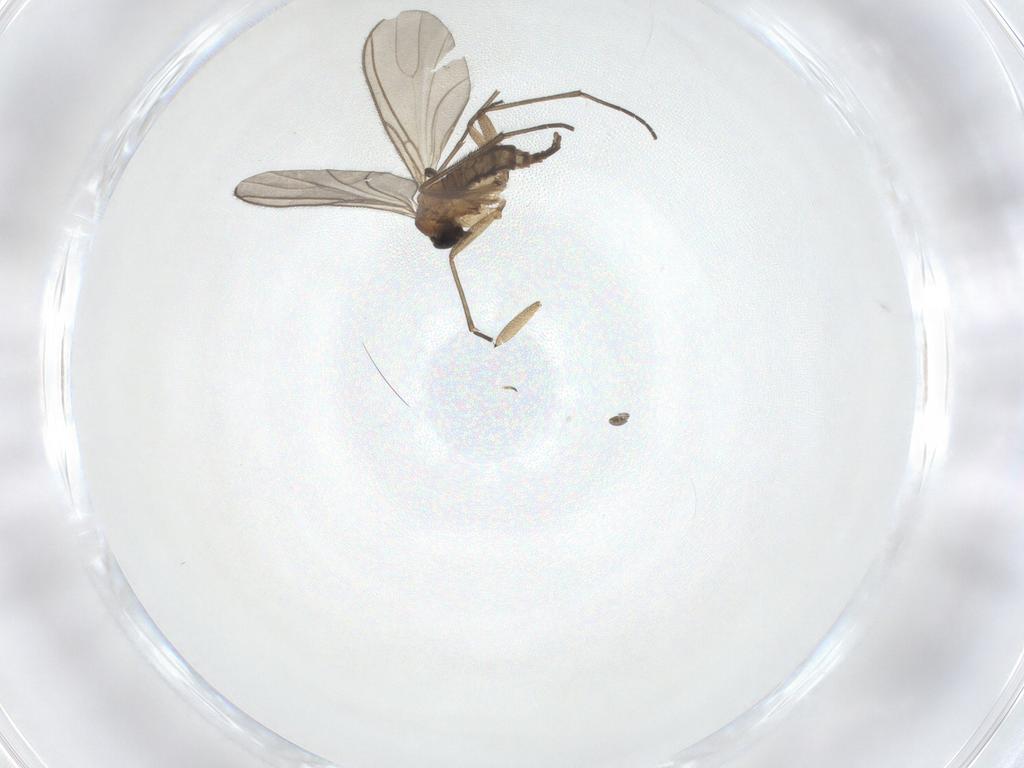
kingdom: Animalia
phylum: Arthropoda
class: Insecta
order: Diptera
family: Sciaridae
